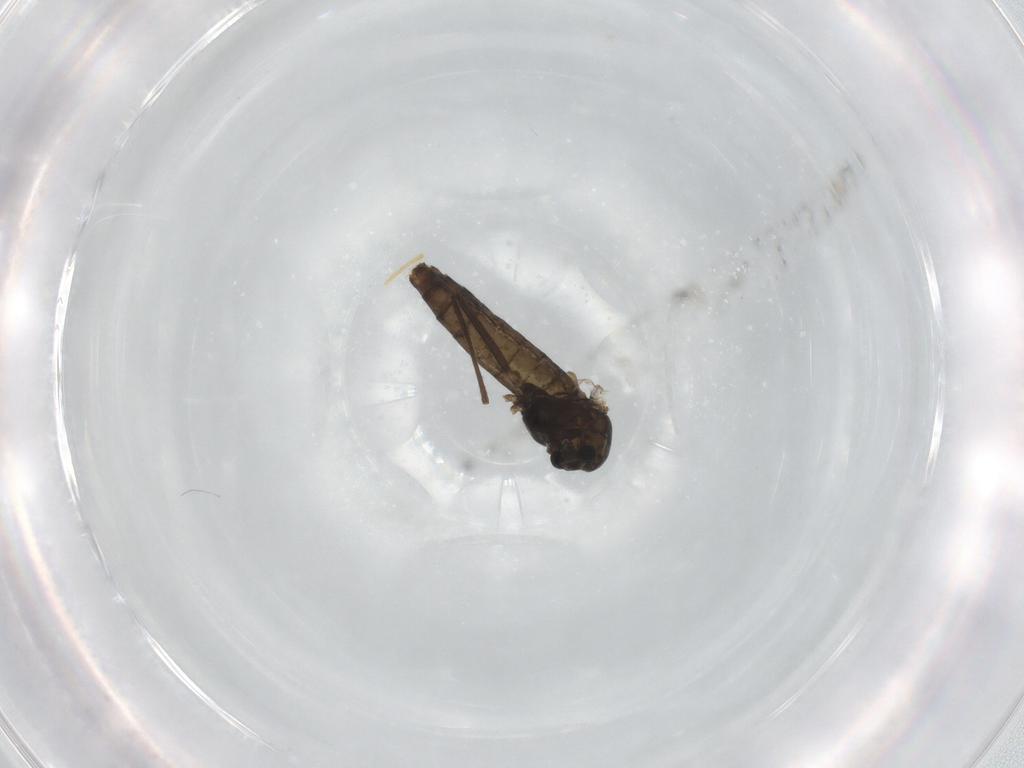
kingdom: Animalia
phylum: Arthropoda
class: Insecta
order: Diptera
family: Chironomidae
